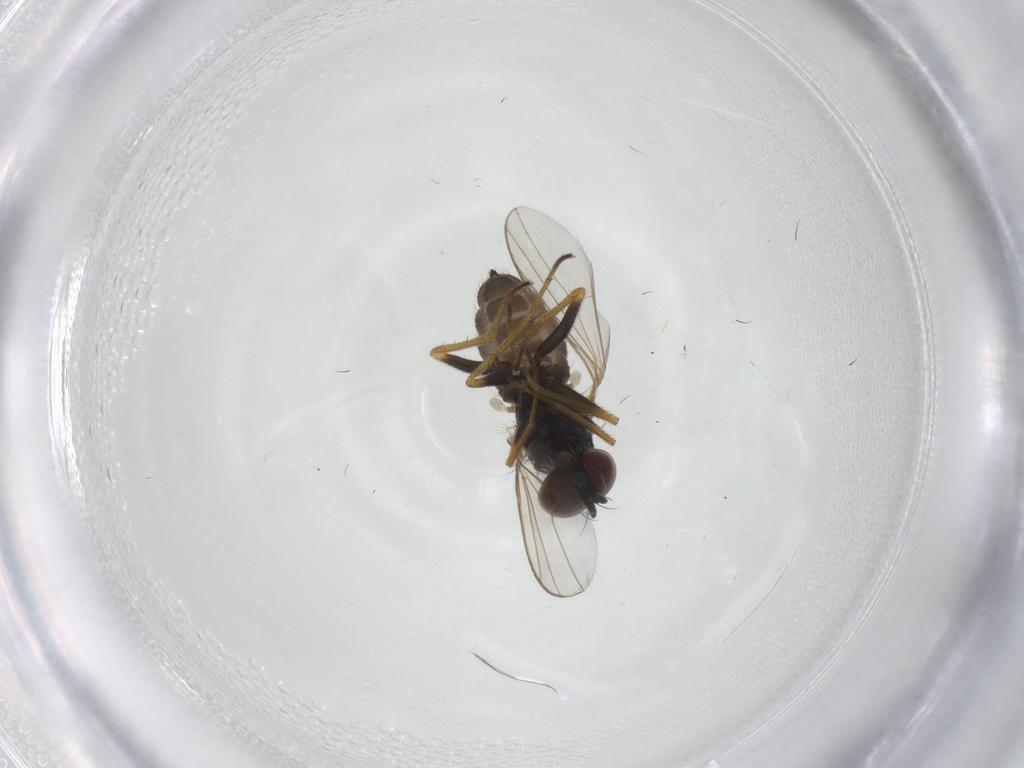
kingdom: Animalia
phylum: Arthropoda
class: Insecta
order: Diptera
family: Dolichopodidae
